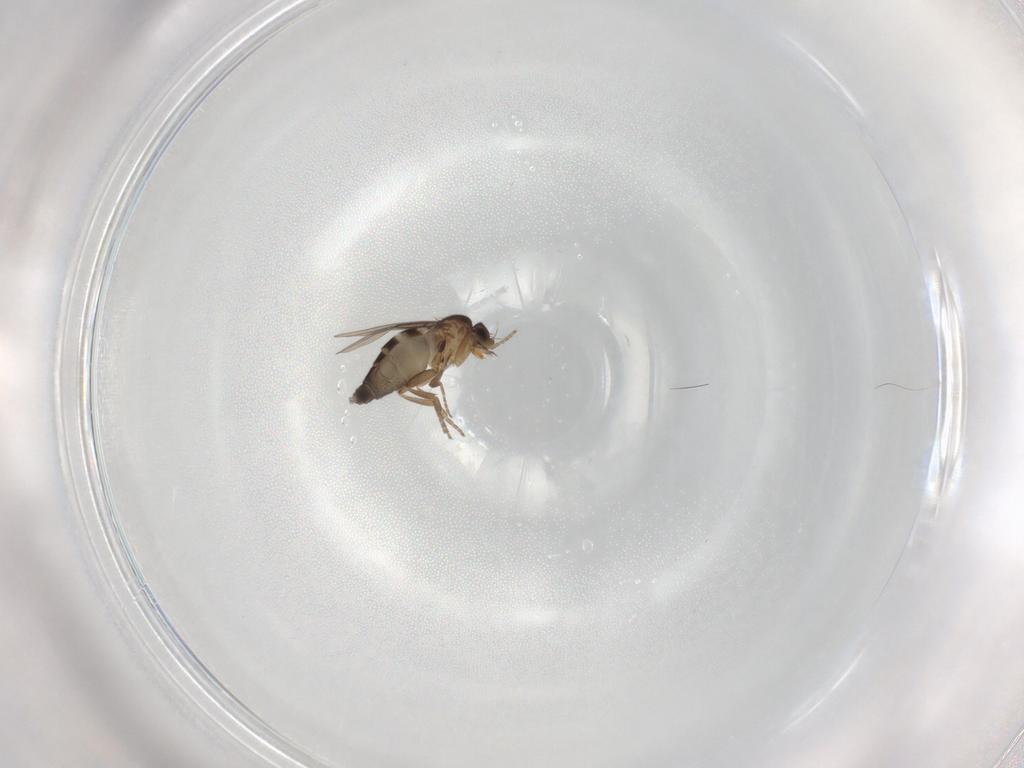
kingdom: Animalia
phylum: Arthropoda
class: Insecta
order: Diptera
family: Phoridae
